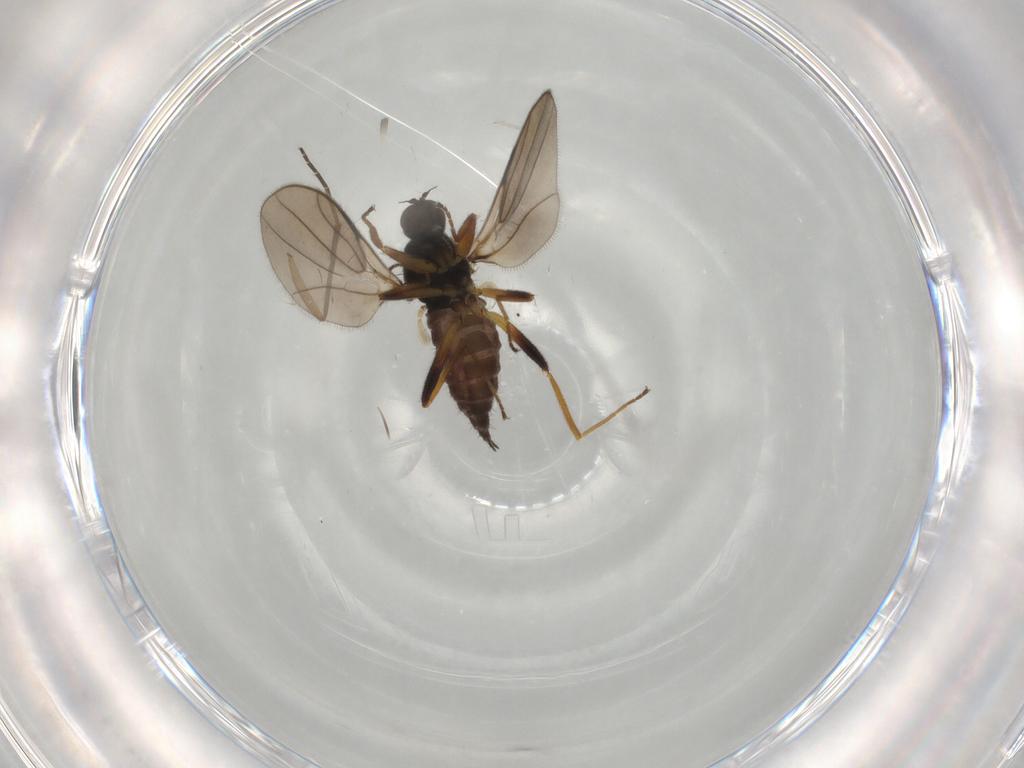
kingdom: Animalia
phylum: Arthropoda
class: Insecta
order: Diptera
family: Hybotidae
